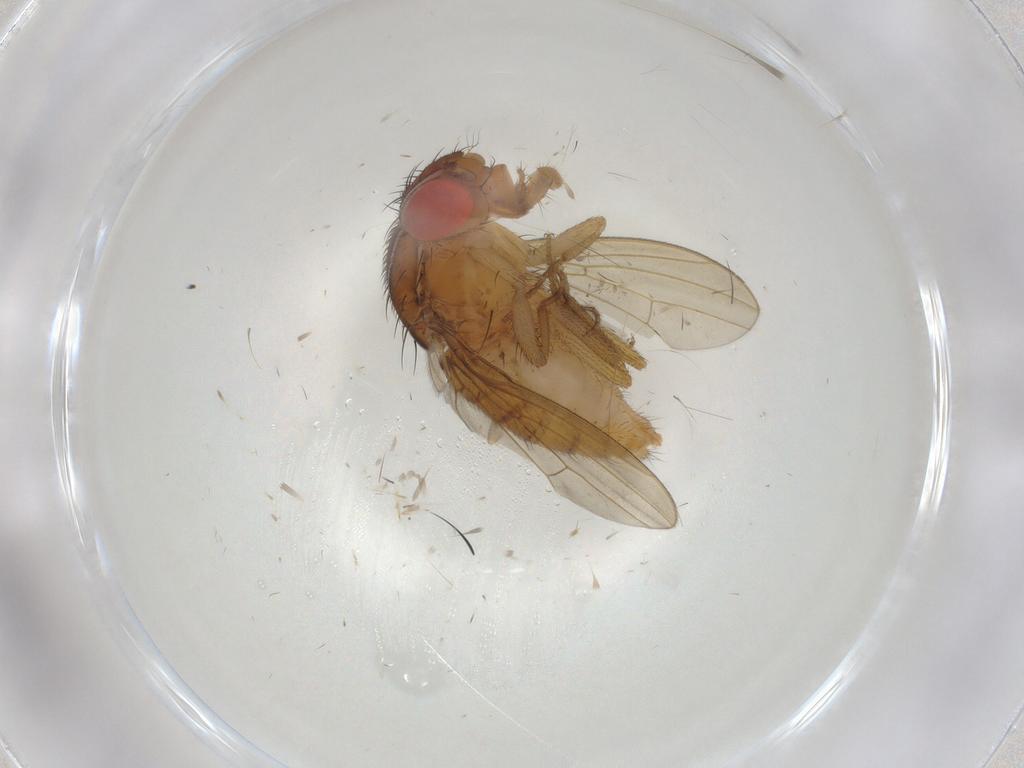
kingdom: Animalia
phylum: Arthropoda
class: Insecta
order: Diptera
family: Drosophilidae
